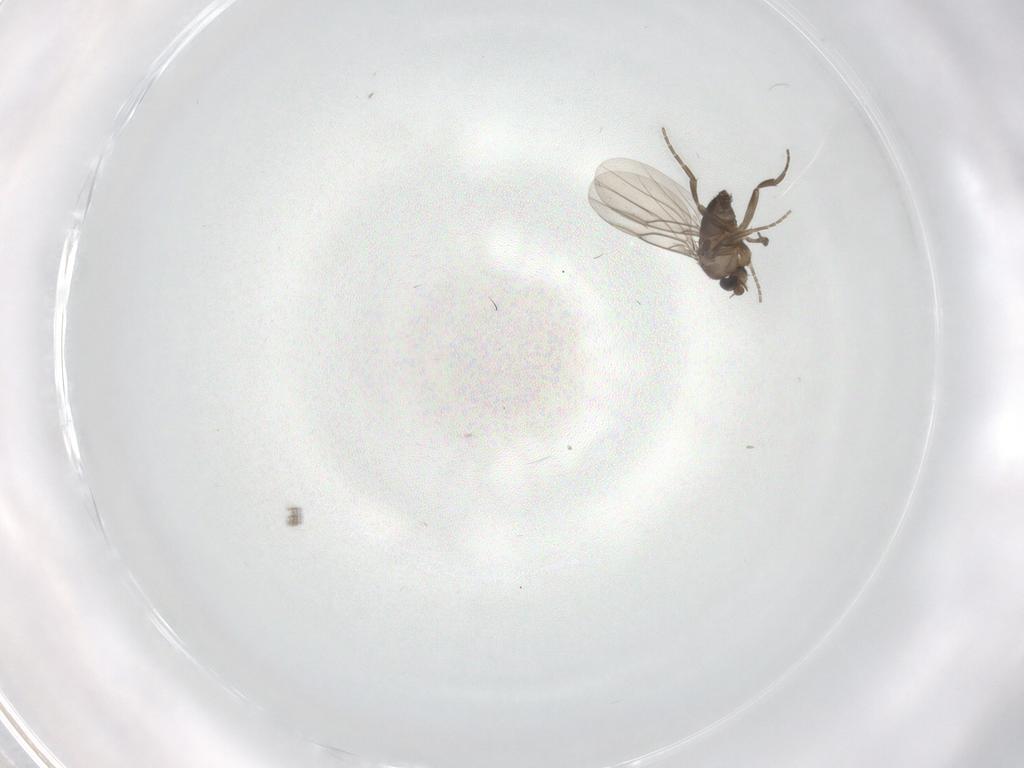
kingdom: Animalia
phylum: Arthropoda
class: Insecta
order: Diptera
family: Phoridae
